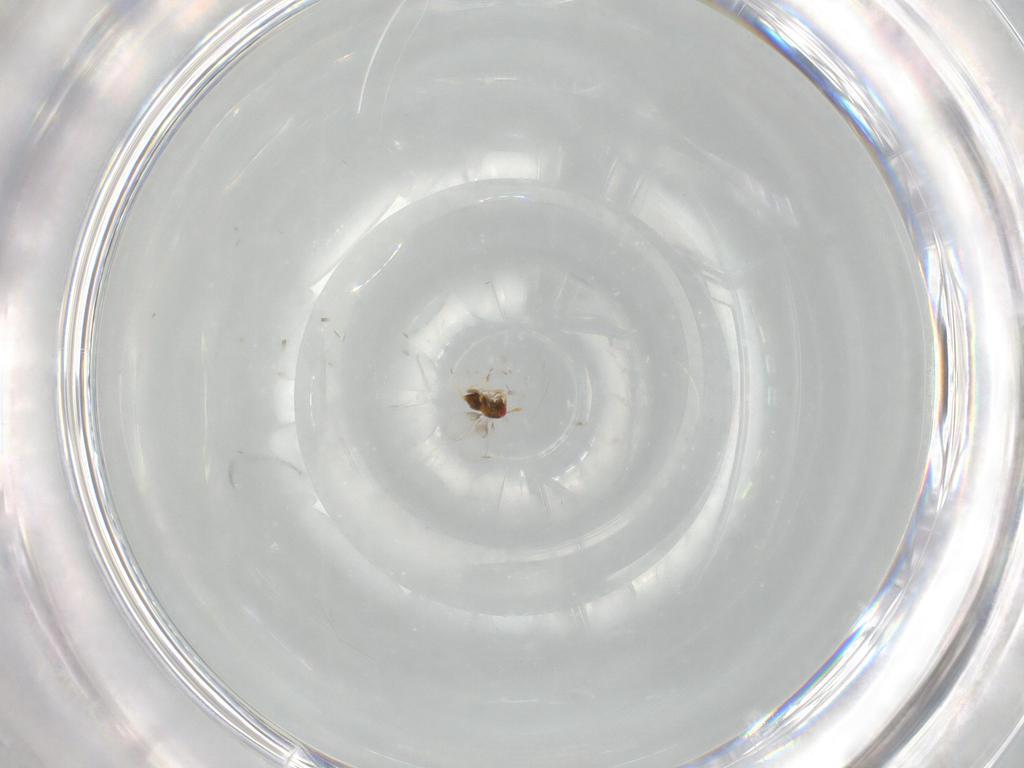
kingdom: Animalia
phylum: Arthropoda
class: Insecta
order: Hymenoptera
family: Trichogrammatidae
